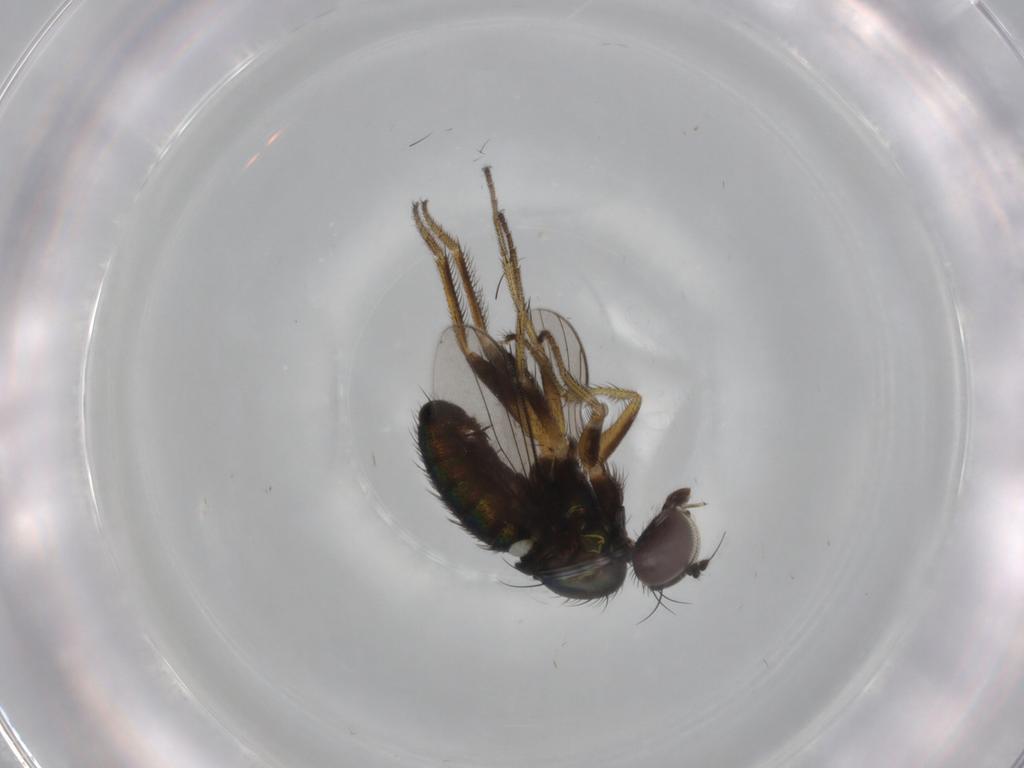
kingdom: Animalia
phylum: Arthropoda
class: Insecta
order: Diptera
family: Dolichopodidae
